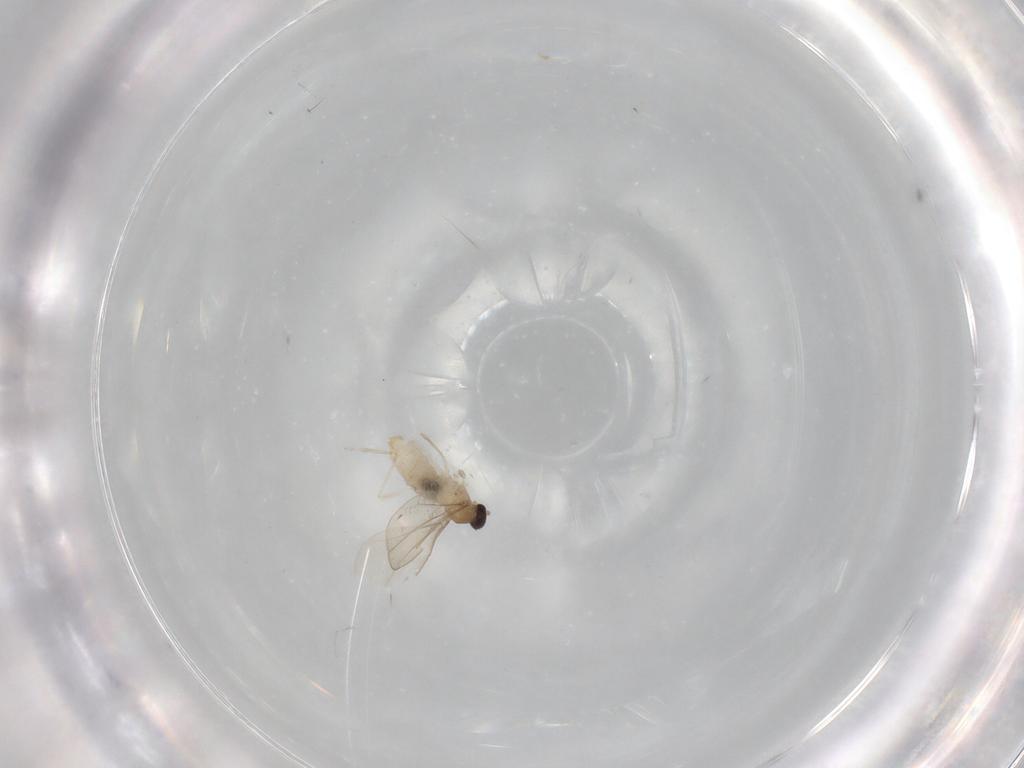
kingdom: Animalia
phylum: Arthropoda
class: Insecta
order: Diptera
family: Cecidomyiidae
